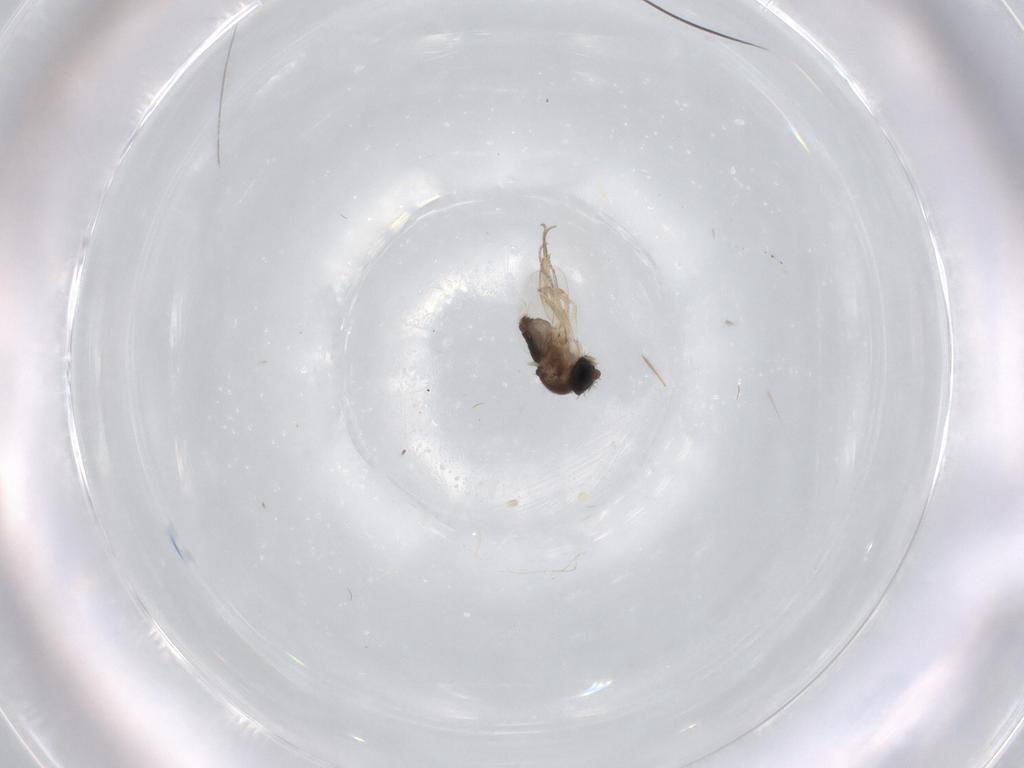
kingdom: Animalia
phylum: Arthropoda
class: Insecta
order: Diptera
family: Phoridae
